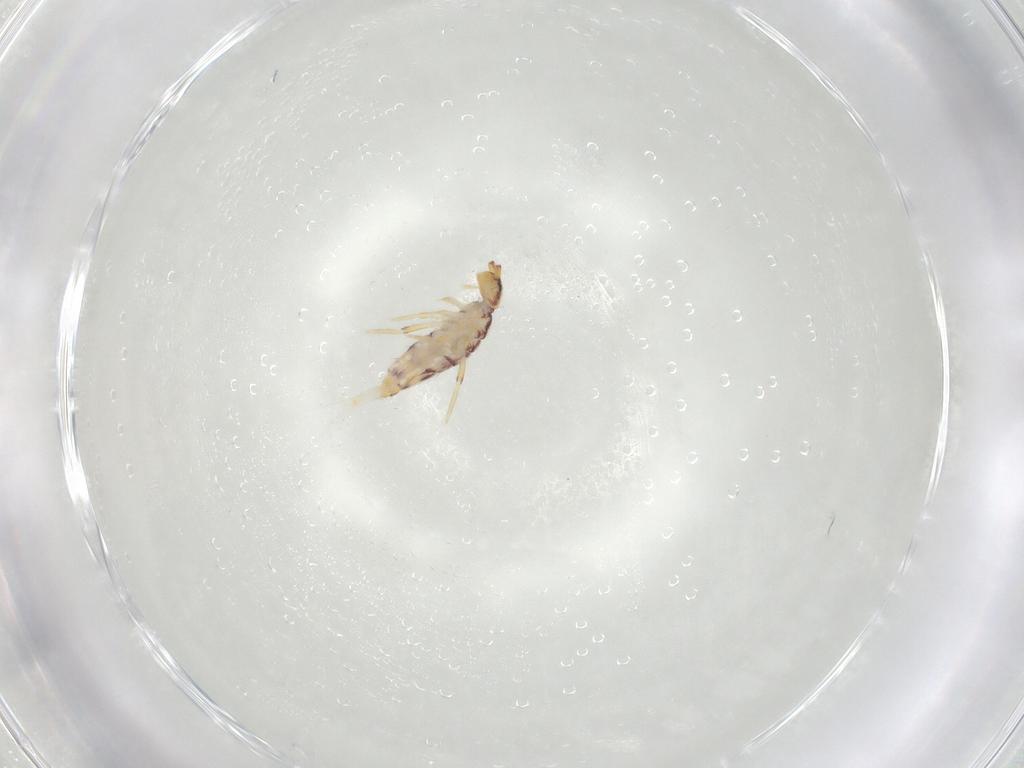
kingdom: Animalia
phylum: Arthropoda
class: Collembola
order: Entomobryomorpha
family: Entomobryidae
